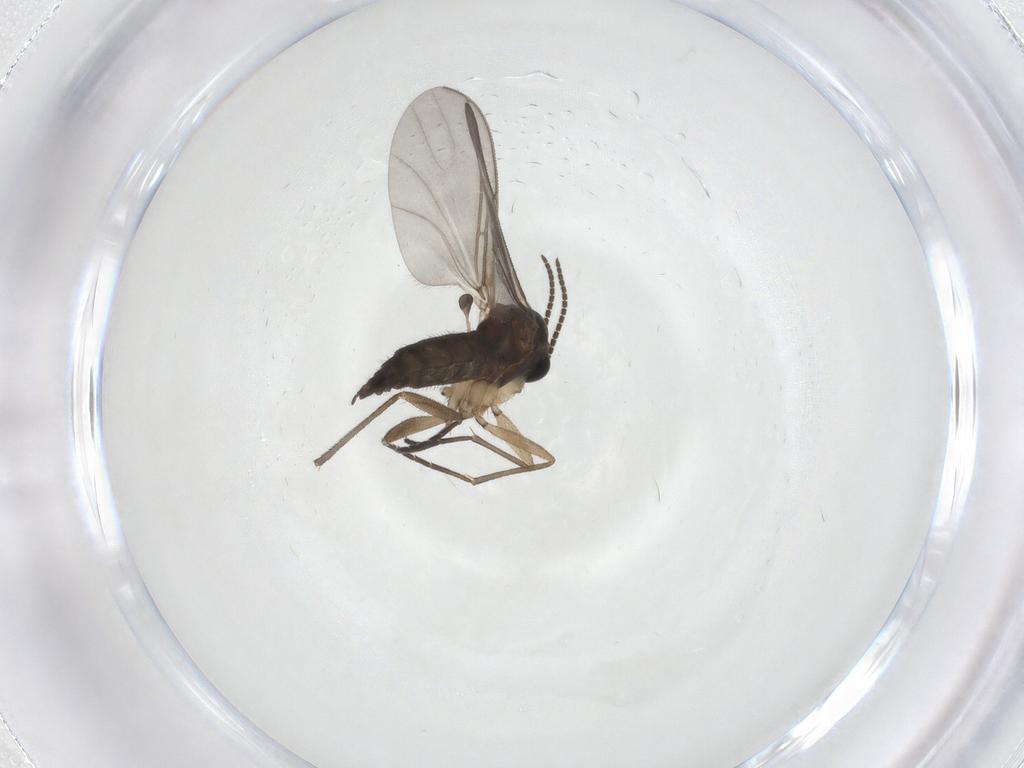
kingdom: Animalia
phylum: Arthropoda
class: Insecta
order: Diptera
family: Sciaridae
